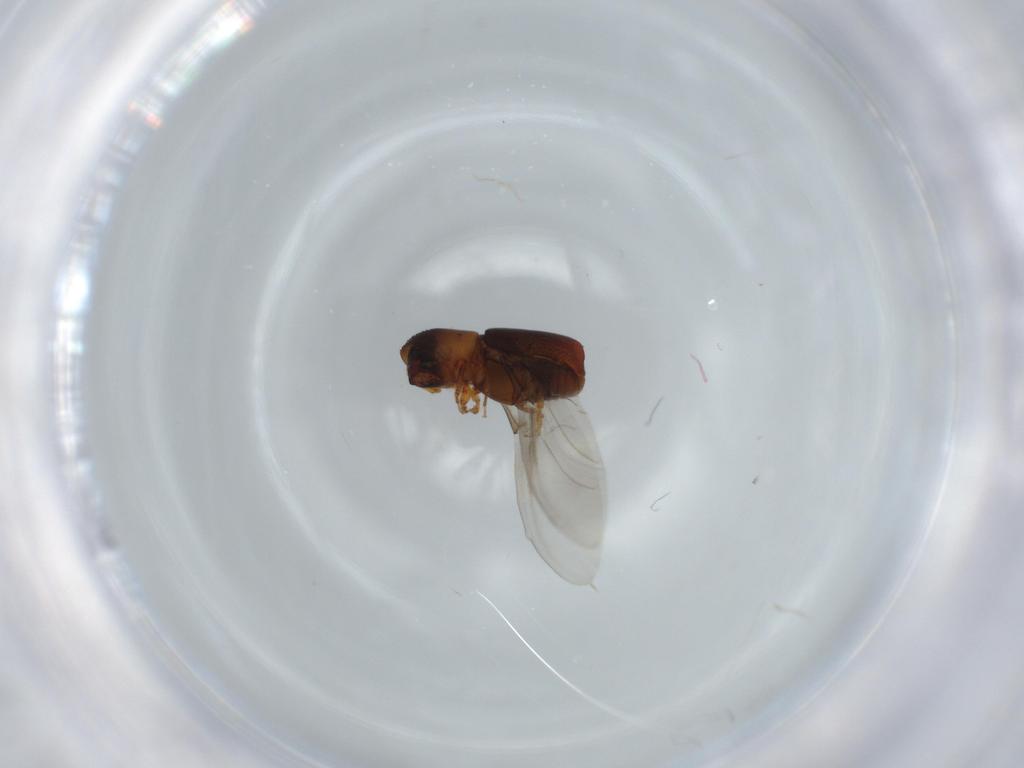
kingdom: Animalia
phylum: Arthropoda
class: Insecta
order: Coleoptera
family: Curculionidae
